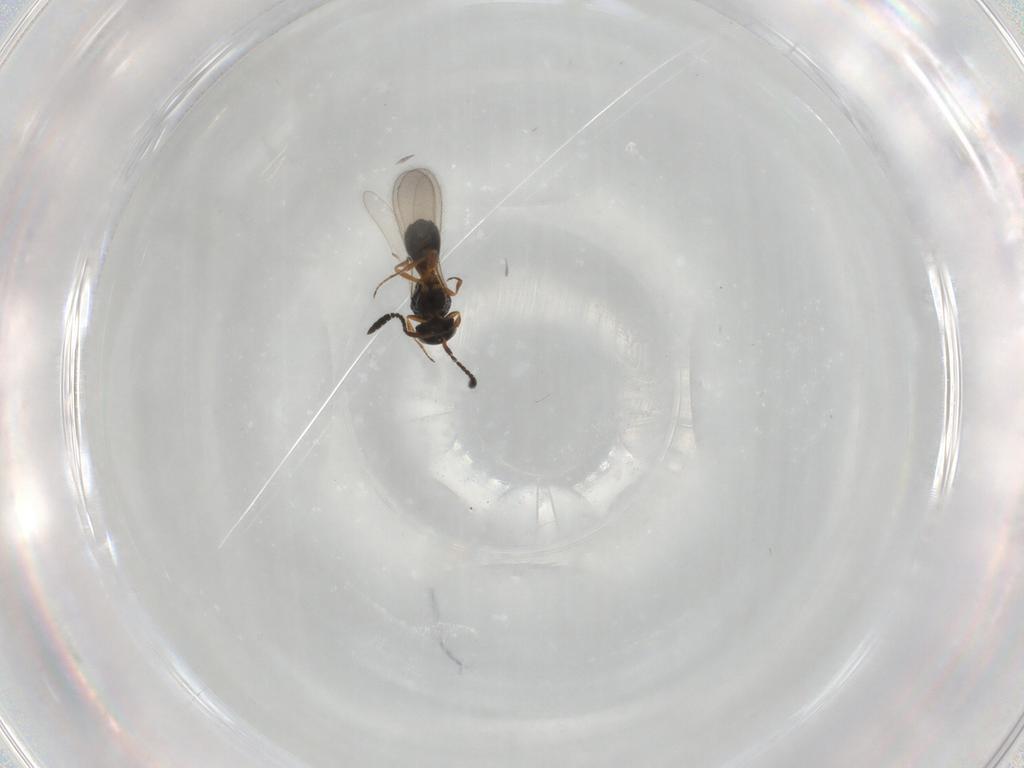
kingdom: Animalia
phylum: Arthropoda
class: Insecta
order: Hymenoptera
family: Scelionidae
